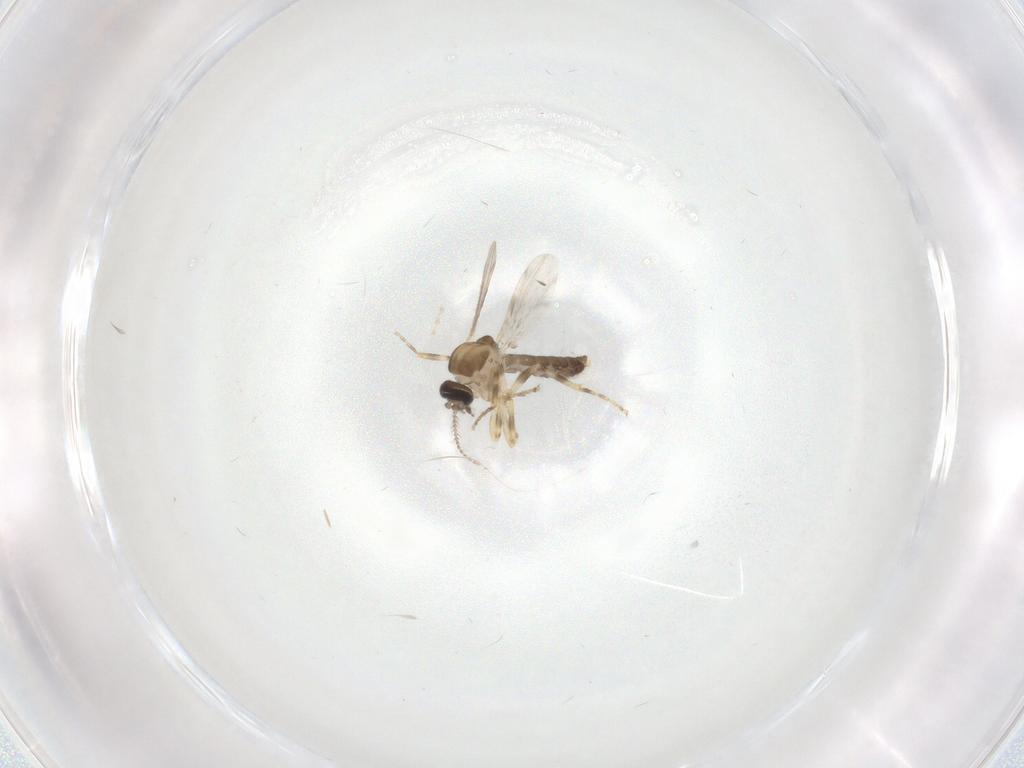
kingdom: Animalia
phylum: Arthropoda
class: Insecta
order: Diptera
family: Ceratopogonidae
